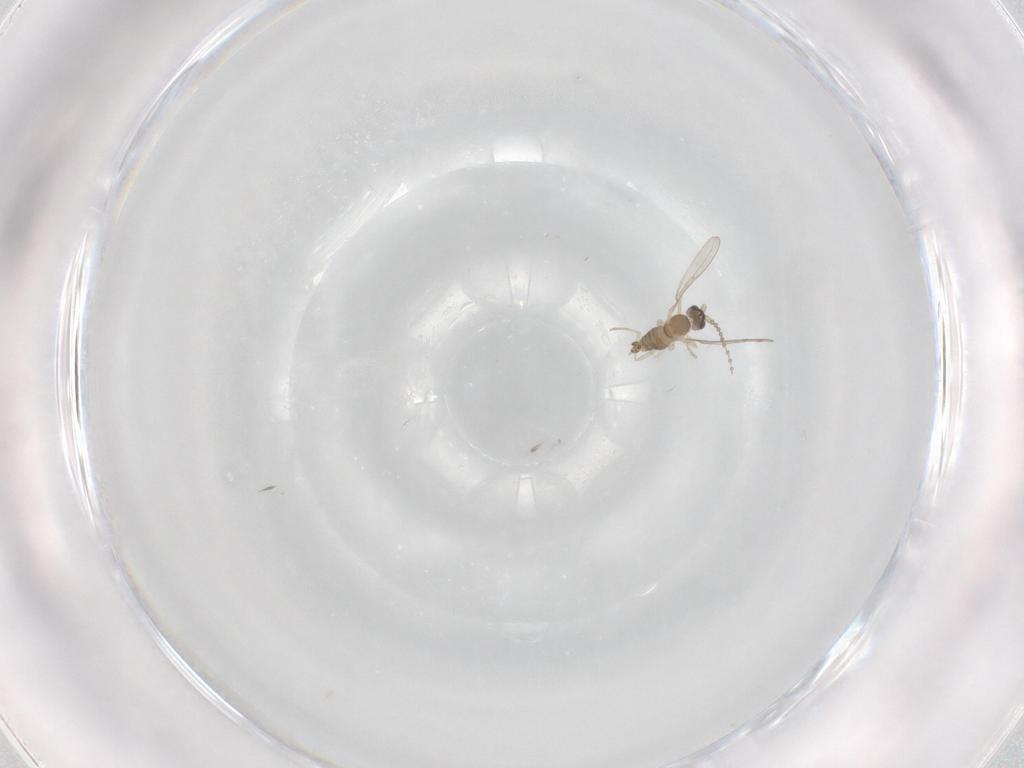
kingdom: Animalia
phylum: Arthropoda
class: Insecta
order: Diptera
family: Cecidomyiidae
